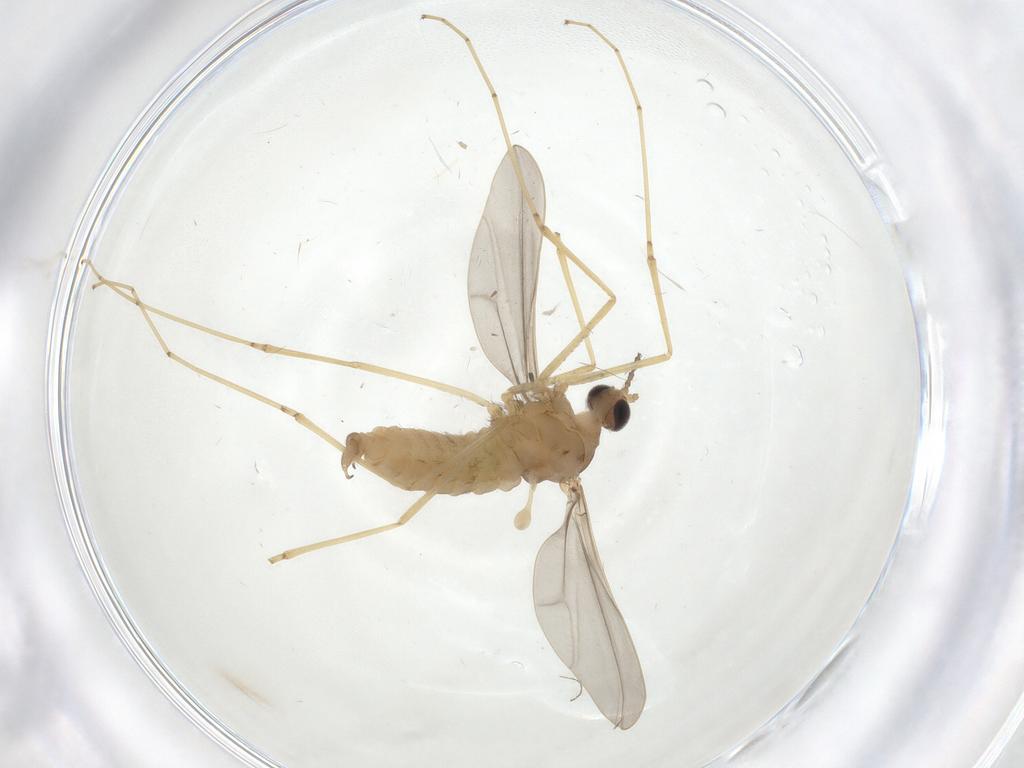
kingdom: Animalia
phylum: Arthropoda
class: Insecta
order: Diptera
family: Cecidomyiidae
